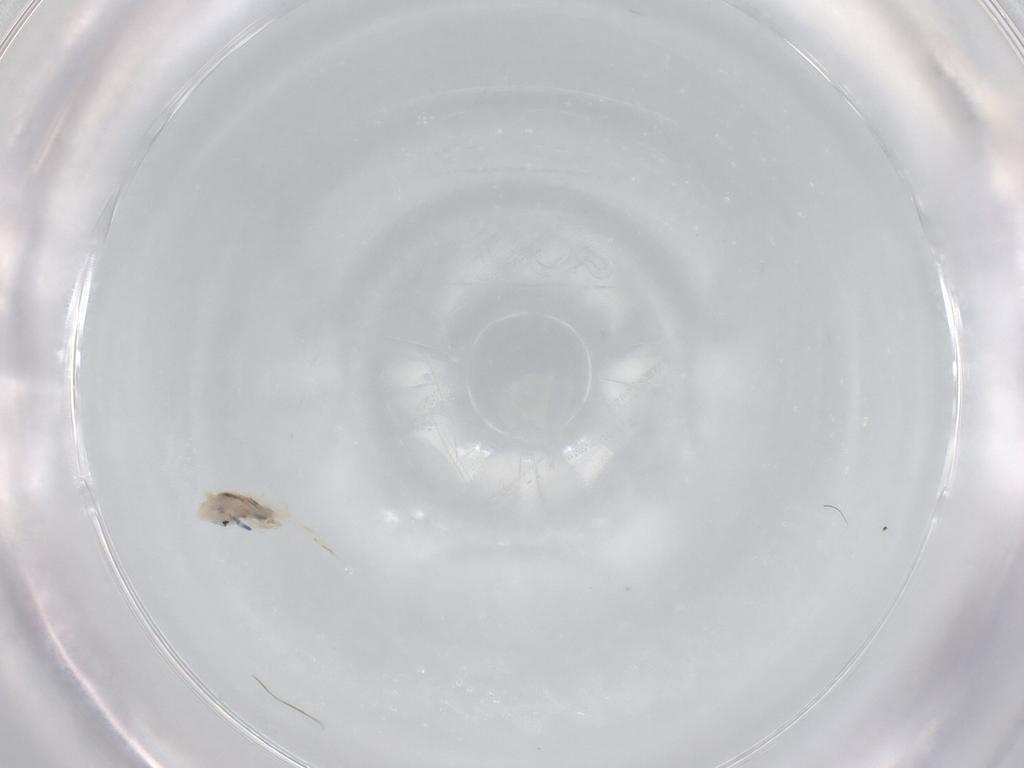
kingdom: Animalia
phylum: Arthropoda
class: Collembola
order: Entomobryomorpha
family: Entomobryidae
